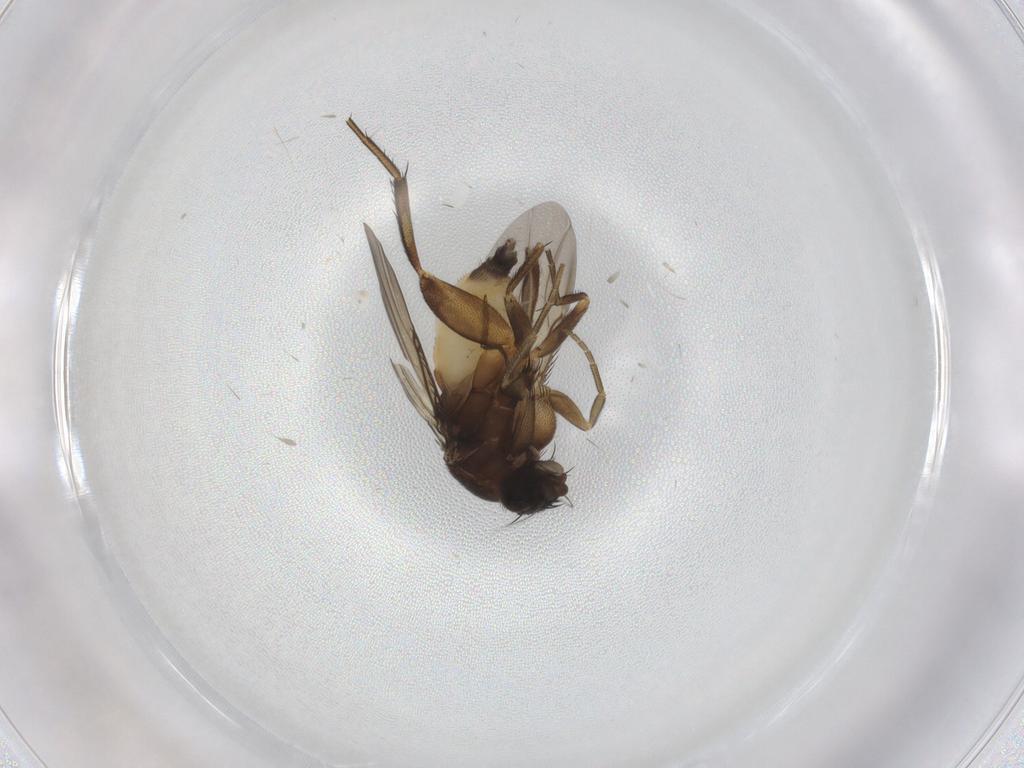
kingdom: Animalia
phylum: Arthropoda
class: Insecta
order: Diptera
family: Phoridae
